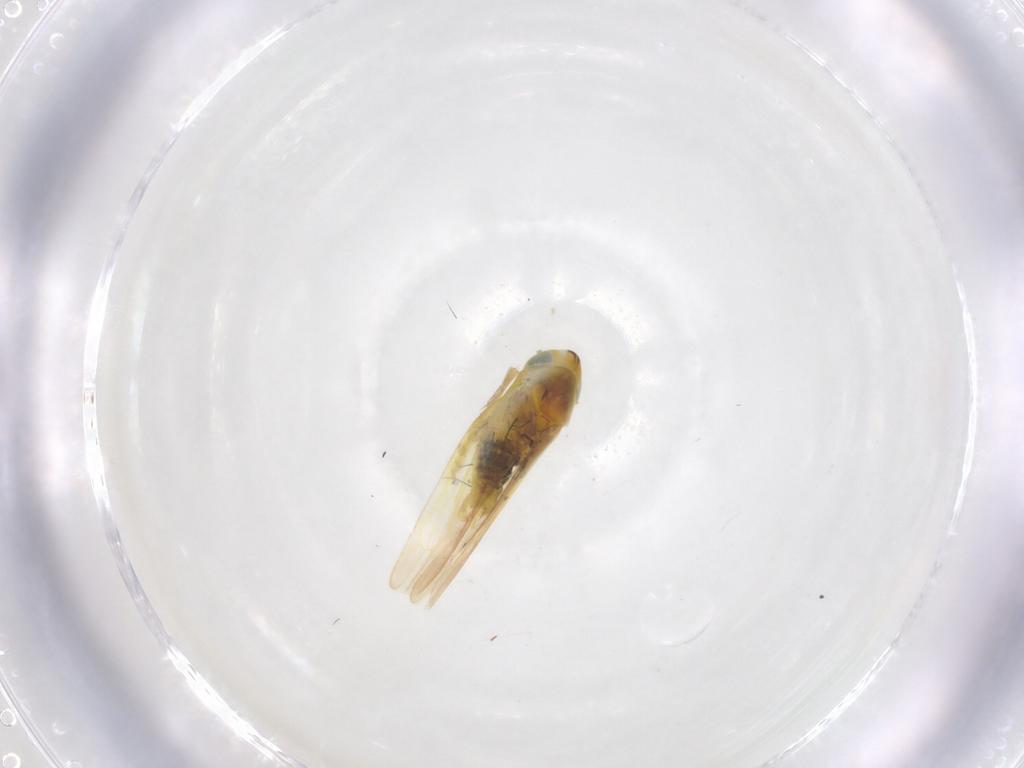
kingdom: Animalia
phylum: Arthropoda
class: Insecta
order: Hemiptera
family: Cicadellidae
